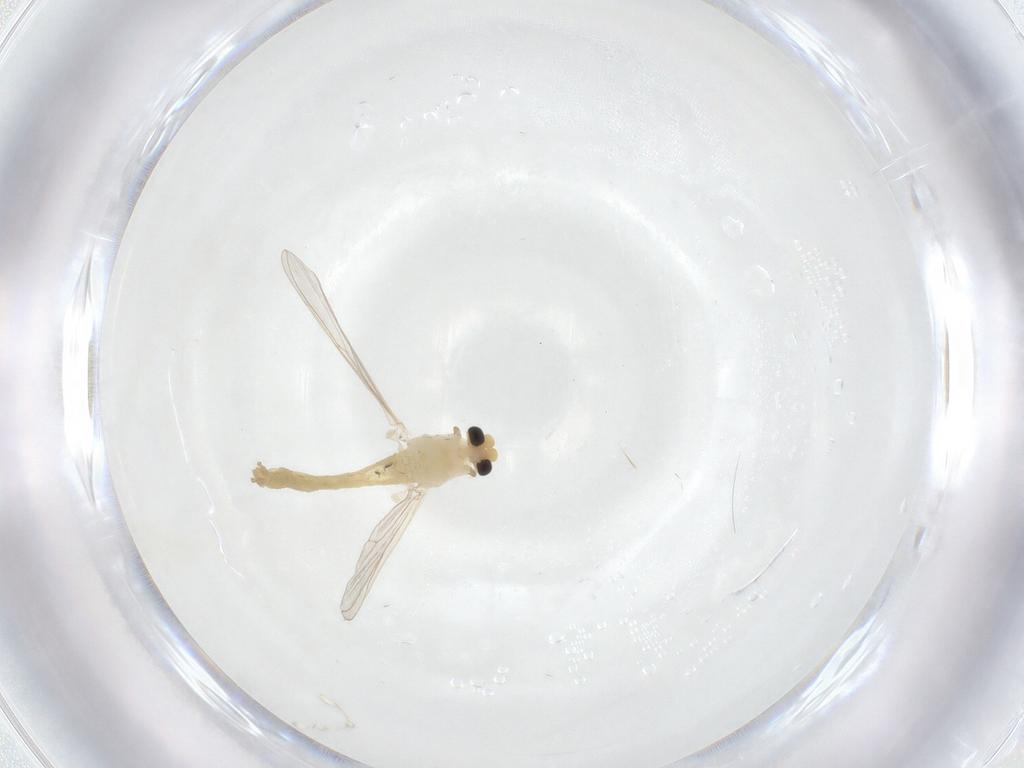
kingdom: Animalia
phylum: Arthropoda
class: Insecta
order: Diptera
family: Chironomidae
